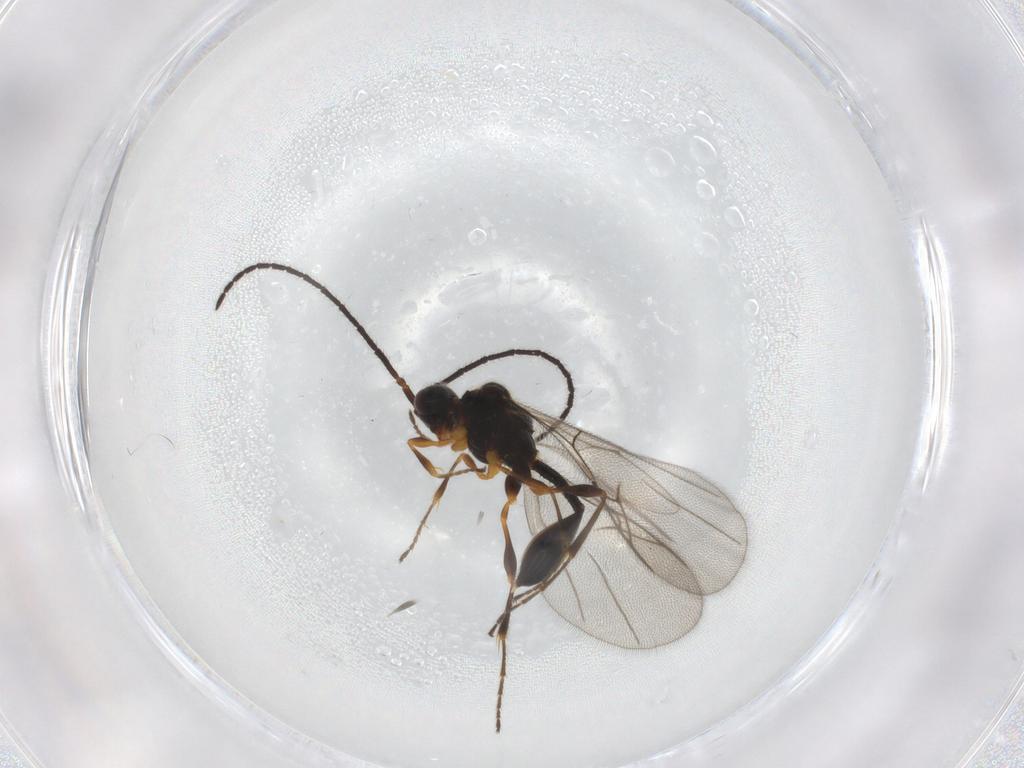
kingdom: Animalia
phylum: Arthropoda
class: Insecta
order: Hymenoptera
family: Diapriidae
